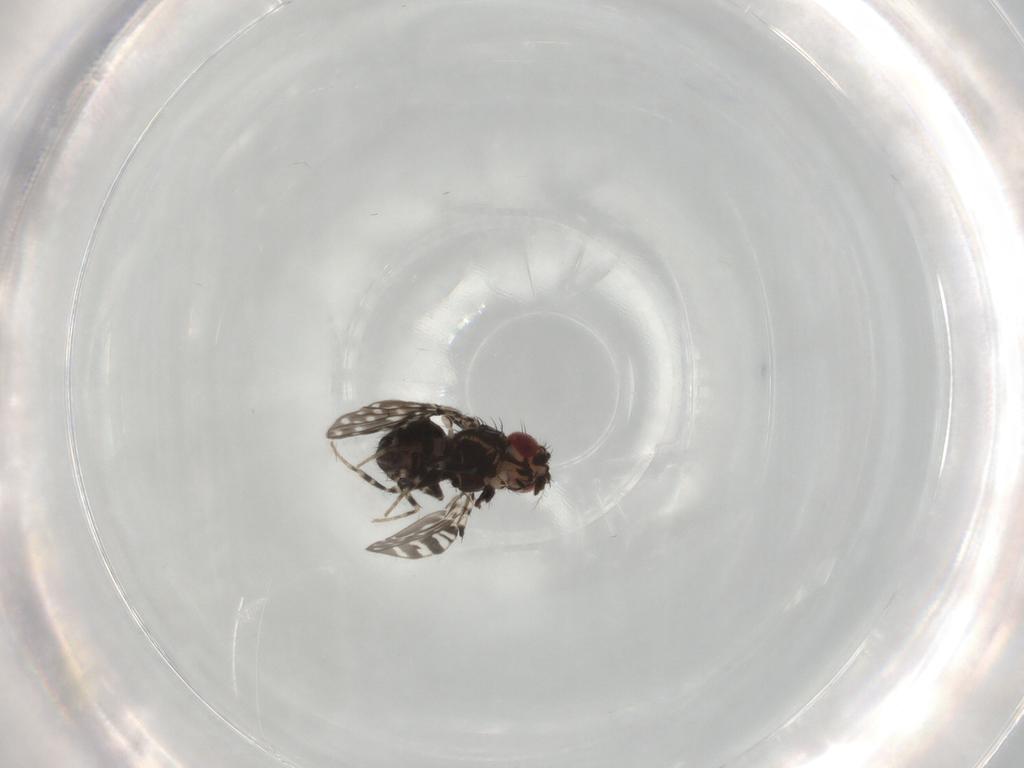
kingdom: Animalia
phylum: Arthropoda
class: Insecta
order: Diptera
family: Drosophilidae
